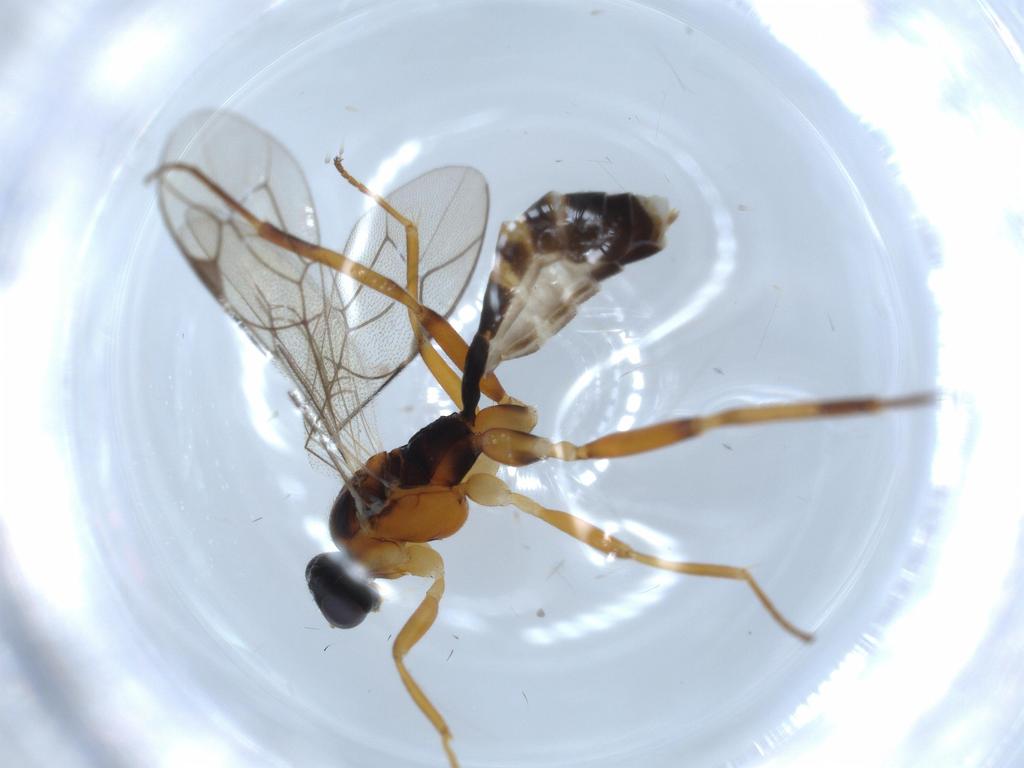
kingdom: Animalia
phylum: Arthropoda
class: Insecta
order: Hymenoptera
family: Ichneumonidae
